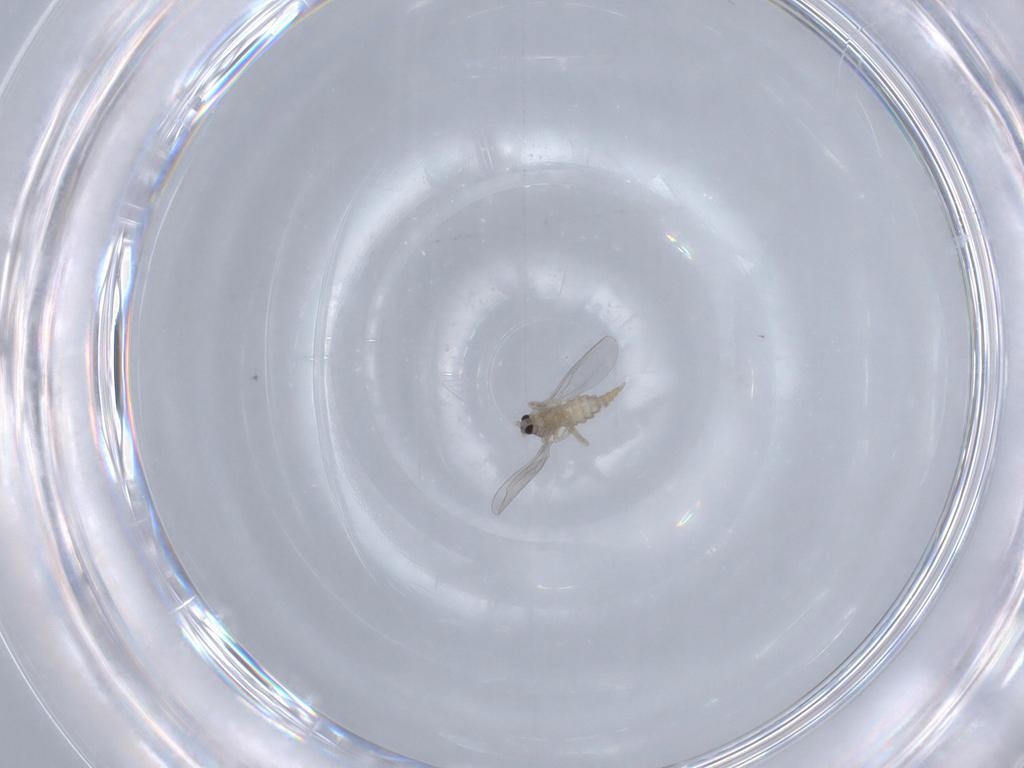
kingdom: Animalia
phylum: Arthropoda
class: Insecta
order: Diptera
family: Cecidomyiidae
